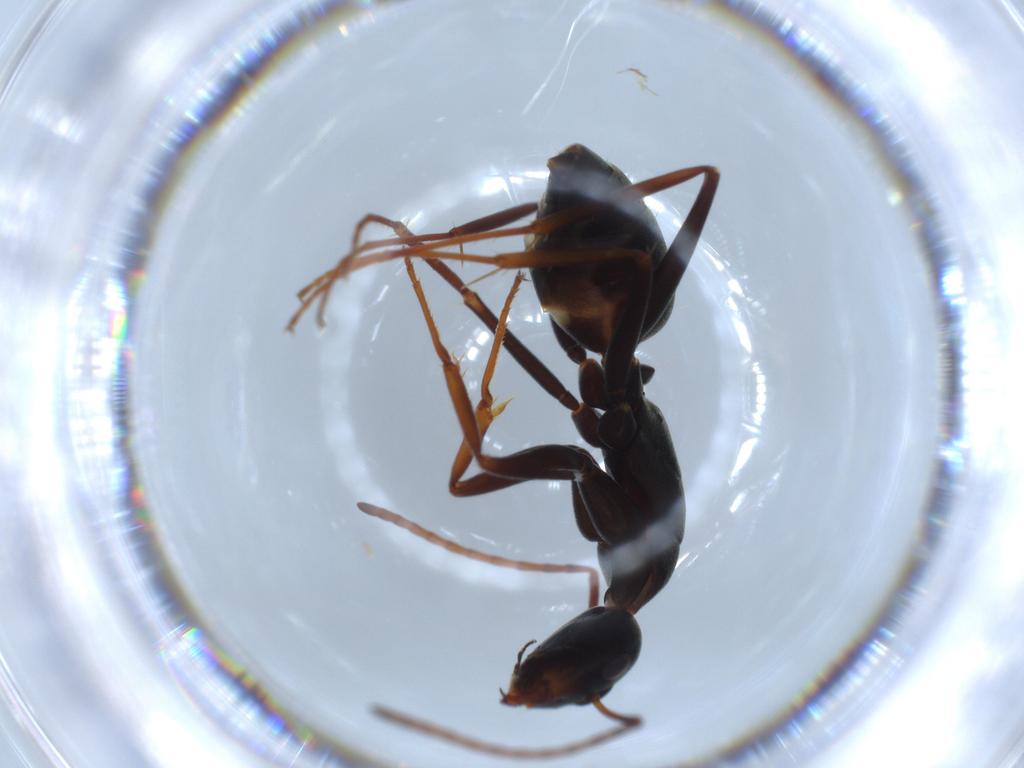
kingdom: Animalia
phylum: Arthropoda
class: Insecta
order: Hymenoptera
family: Formicidae
